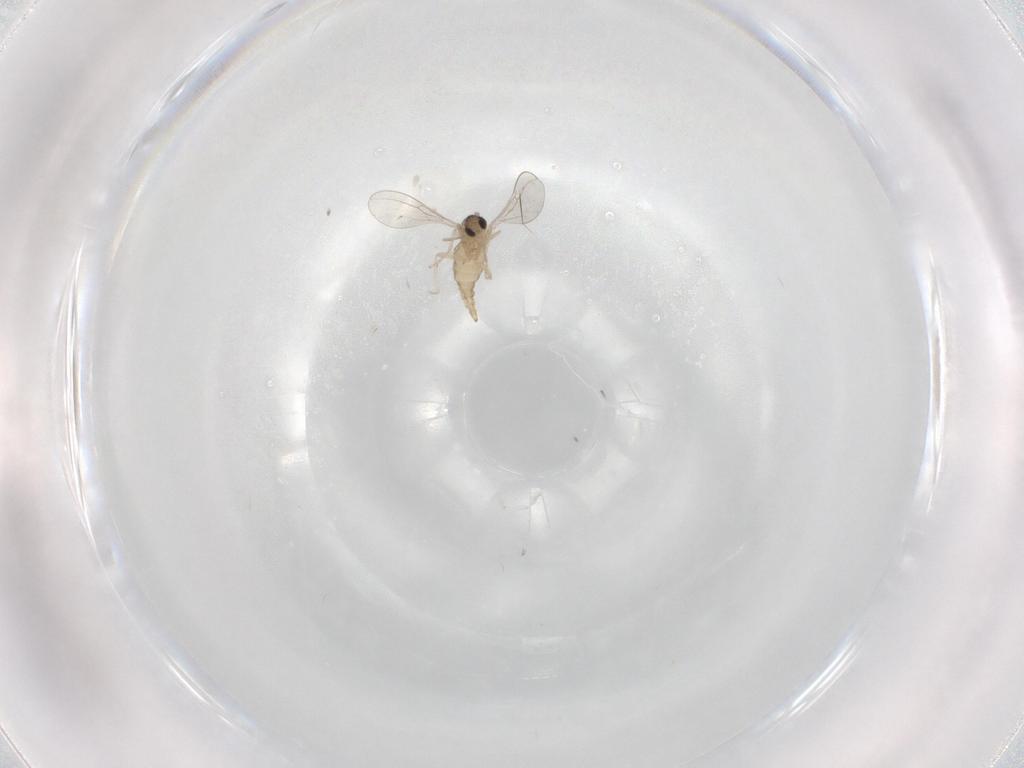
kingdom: Animalia
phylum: Arthropoda
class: Insecta
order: Diptera
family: Cecidomyiidae
